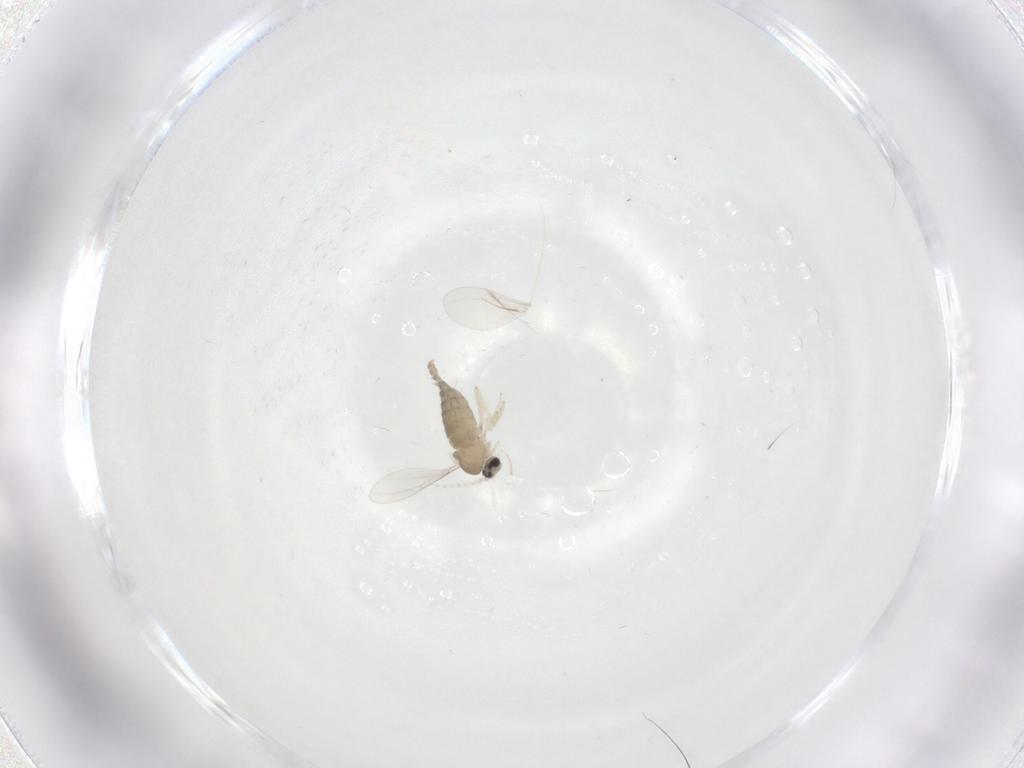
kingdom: Animalia
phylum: Arthropoda
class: Insecta
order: Diptera
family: Cecidomyiidae
